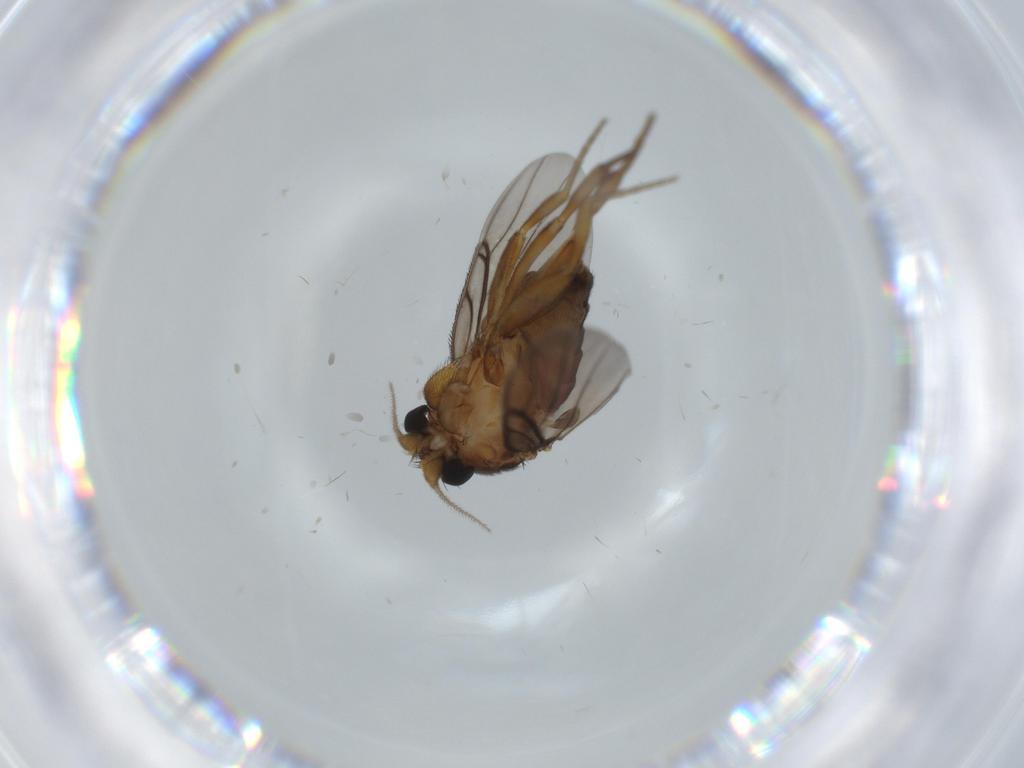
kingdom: Animalia
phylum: Arthropoda
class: Insecta
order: Diptera
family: Phoridae
